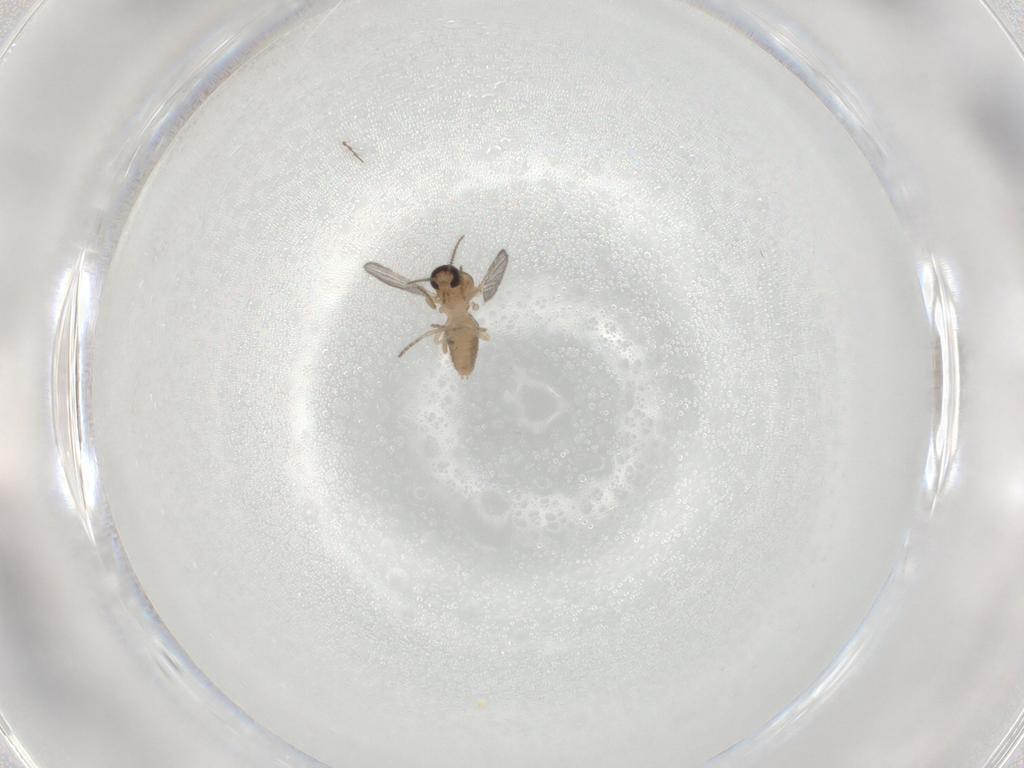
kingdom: Animalia
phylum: Arthropoda
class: Insecta
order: Diptera
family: Ceratopogonidae
